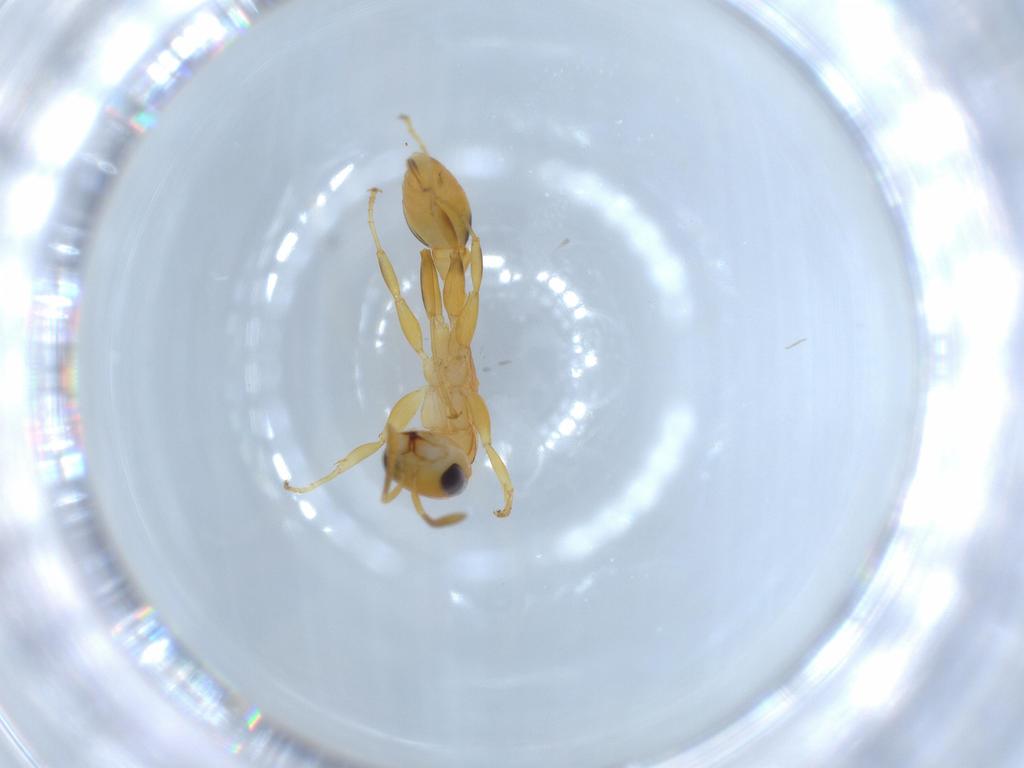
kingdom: Animalia
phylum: Arthropoda
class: Insecta
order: Hymenoptera
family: Formicidae
